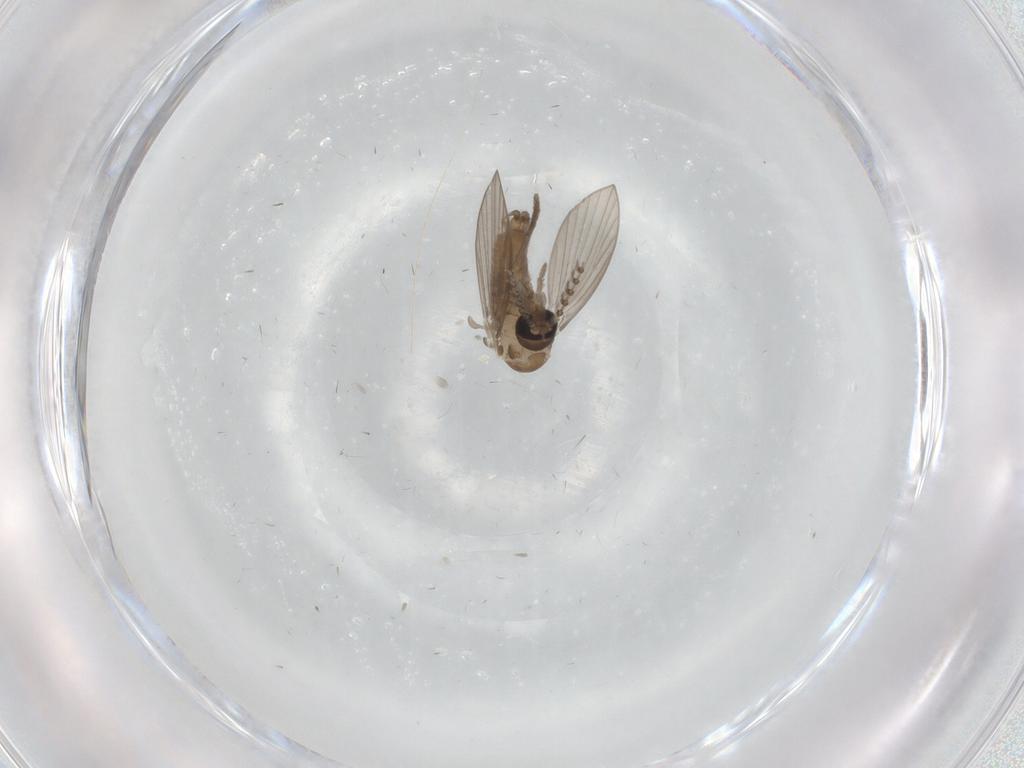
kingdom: Animalia
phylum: Arthropoda
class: Insecta
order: Diptera
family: Psychodidae
